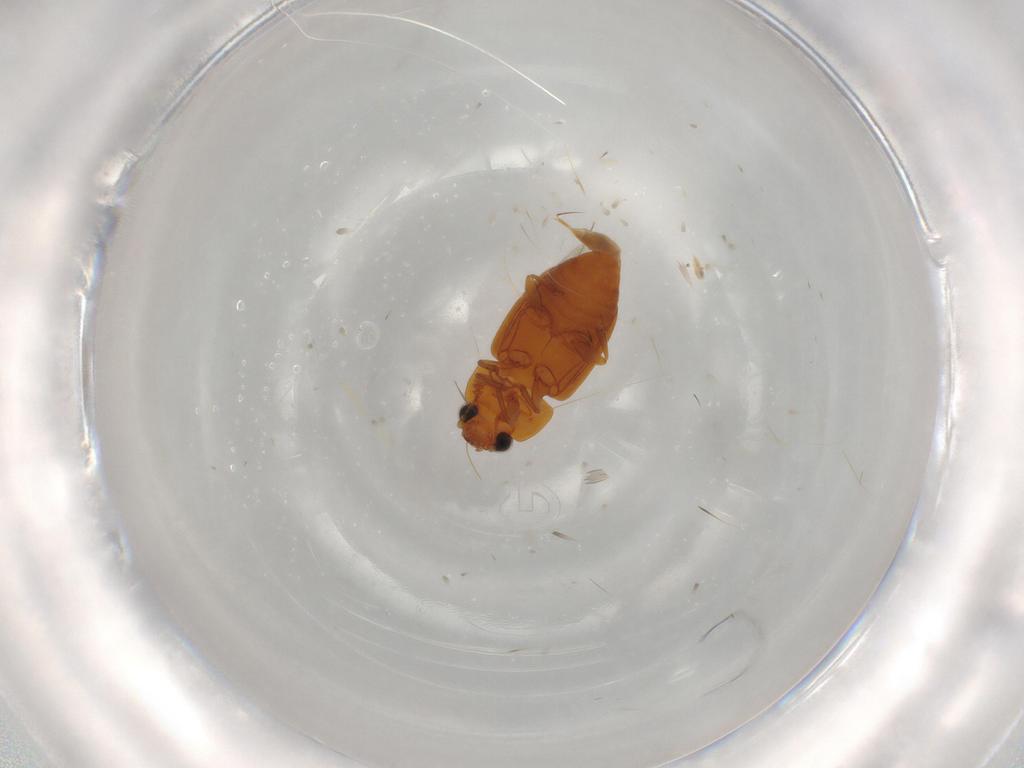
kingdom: Animalia
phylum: Arthropoda
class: Insecta
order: Coleoptera
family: Nitidulidae
